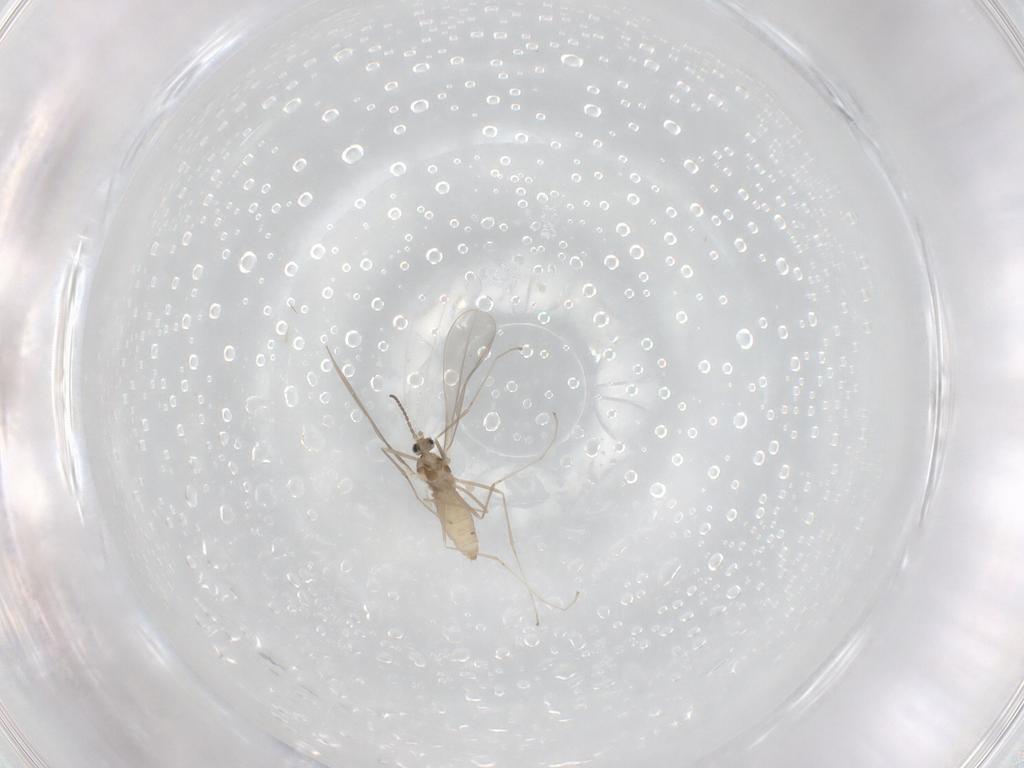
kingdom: Animalia
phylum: Arthropoda
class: Insecta
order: Diptera
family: Cecidomyiidae
